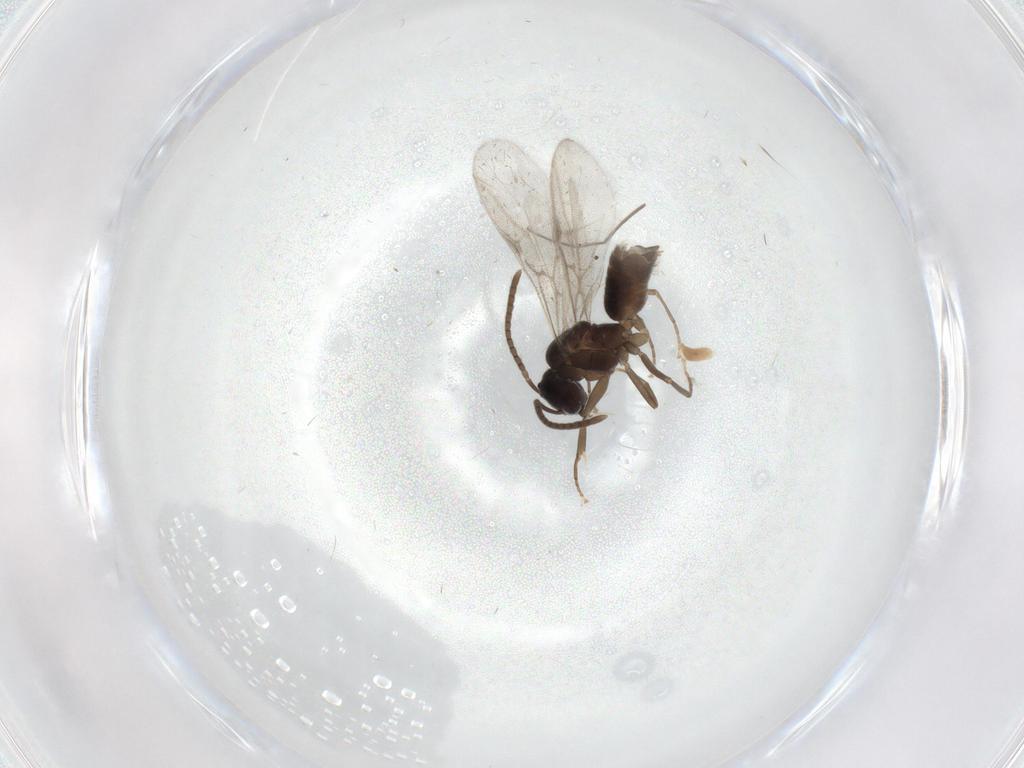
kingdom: Animalia
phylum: Arthropoda
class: Insecta
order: Hymenoptera
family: Formicidae
